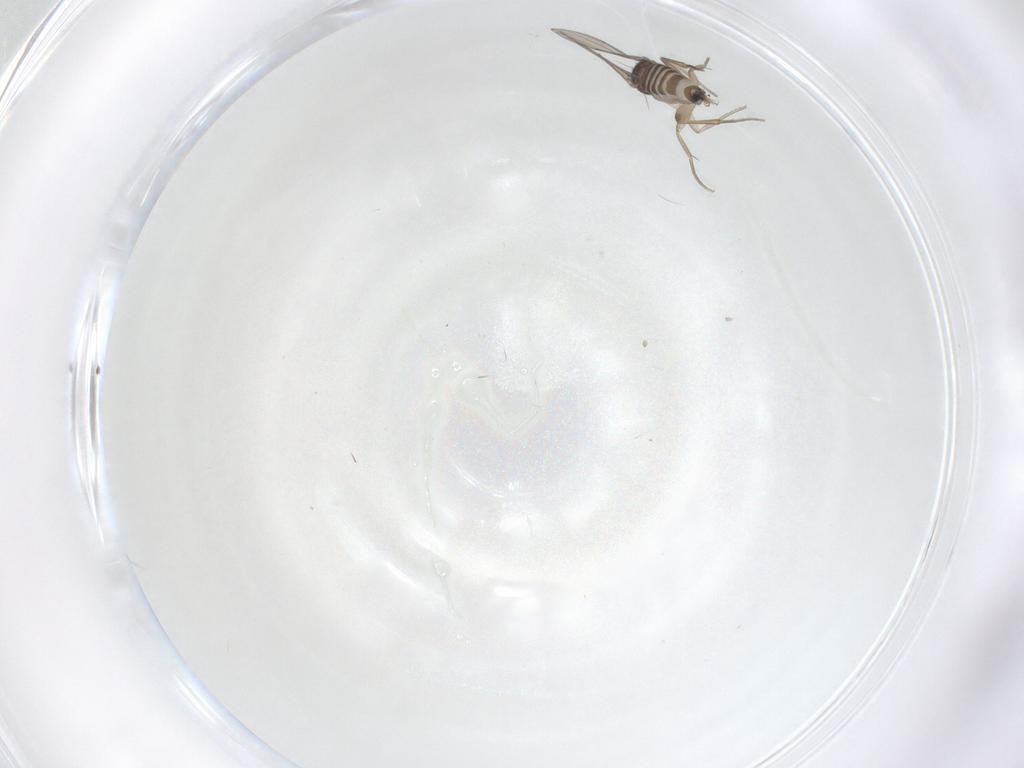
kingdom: Animalia
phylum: Arthropoda
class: Insecta
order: Diptera
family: Phoridae
